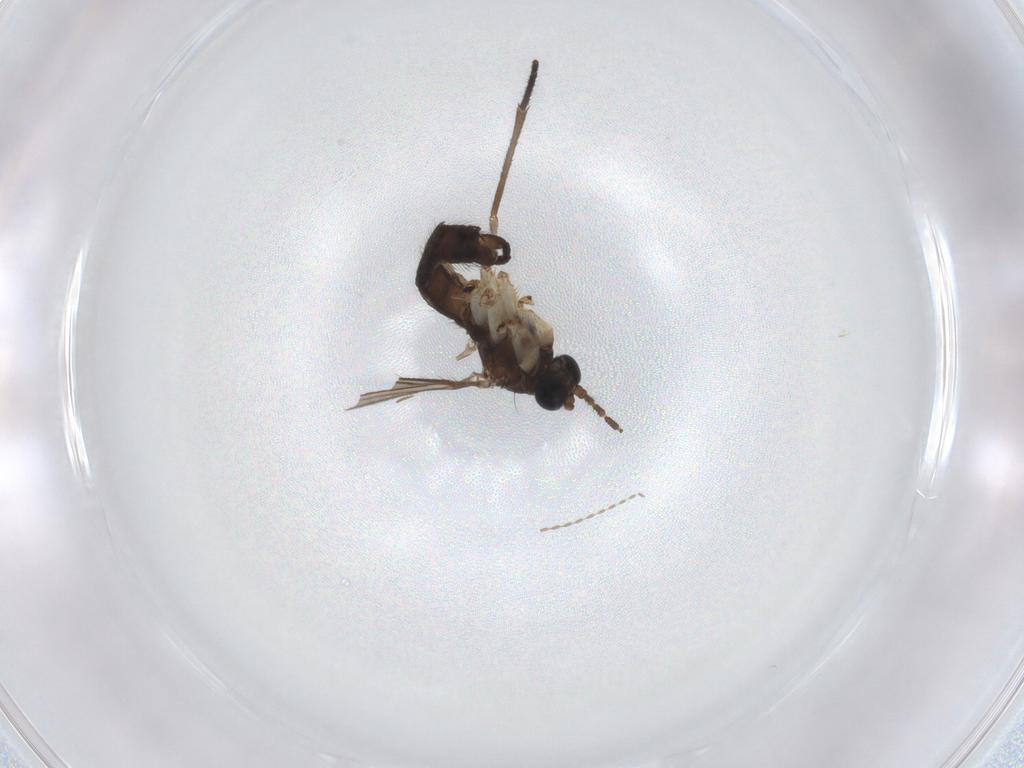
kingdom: Animalia
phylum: Arthropoda
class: Insecta
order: Diptera
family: Sciaridae
